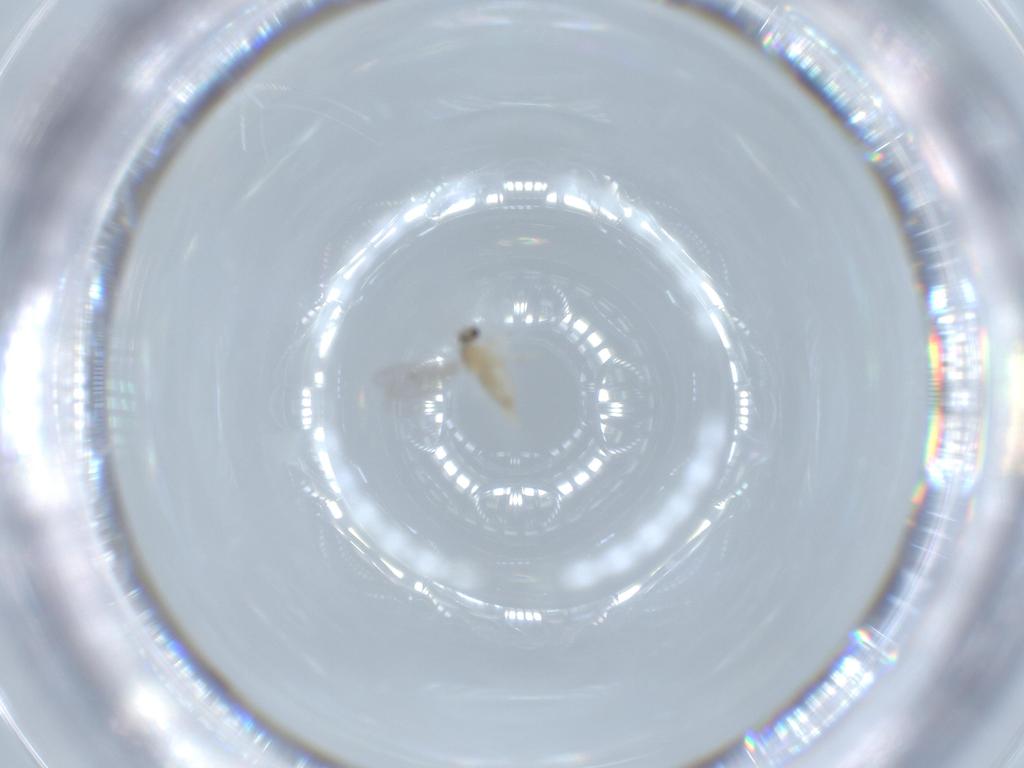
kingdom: Animalia
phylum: Arthropoda
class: Insecta
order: Diptera
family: Cecidomyiidae
